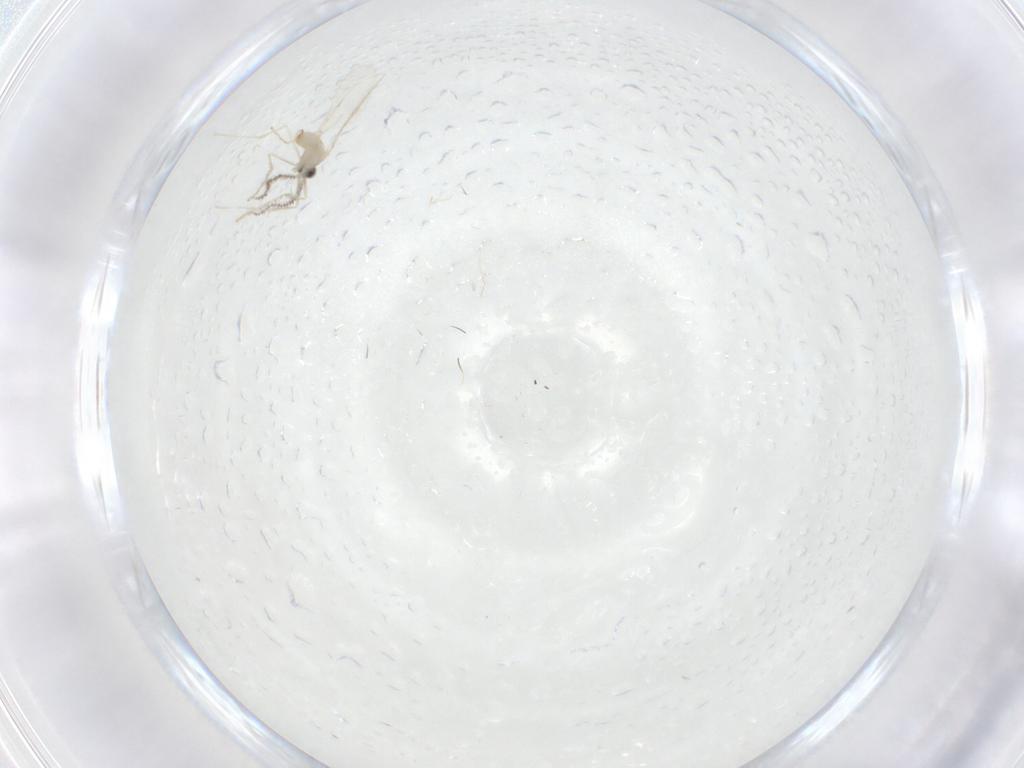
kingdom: Animalia
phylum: Arthropoda
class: Insecta
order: Diptera
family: Cecidomyiidae
